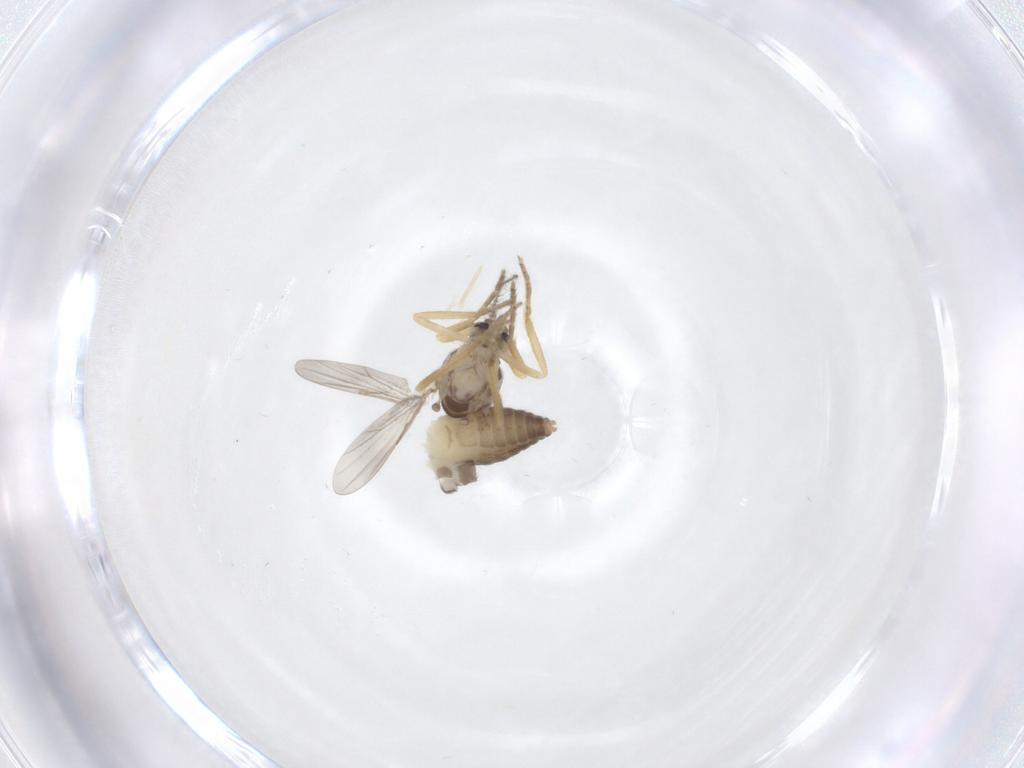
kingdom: Animalia
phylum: Arthropoda
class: Insecta
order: Diptera
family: Ceratopogonidae
